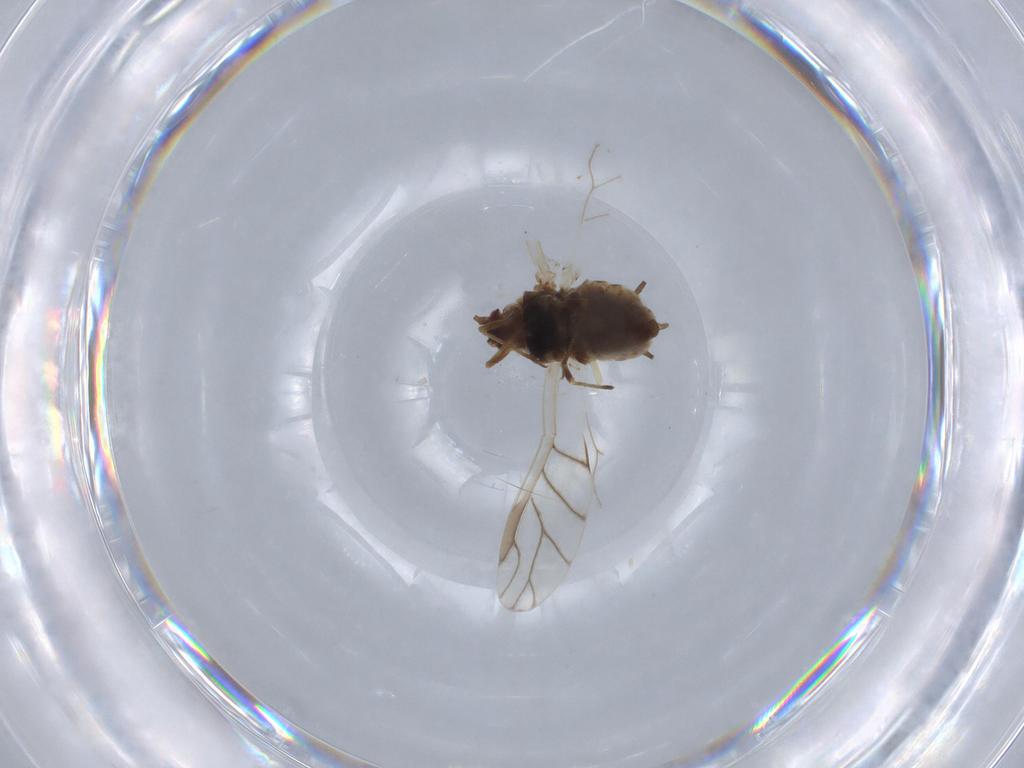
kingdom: Animalia
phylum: Arthropoda
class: Insecta
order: Hemiptera
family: Aphididae
